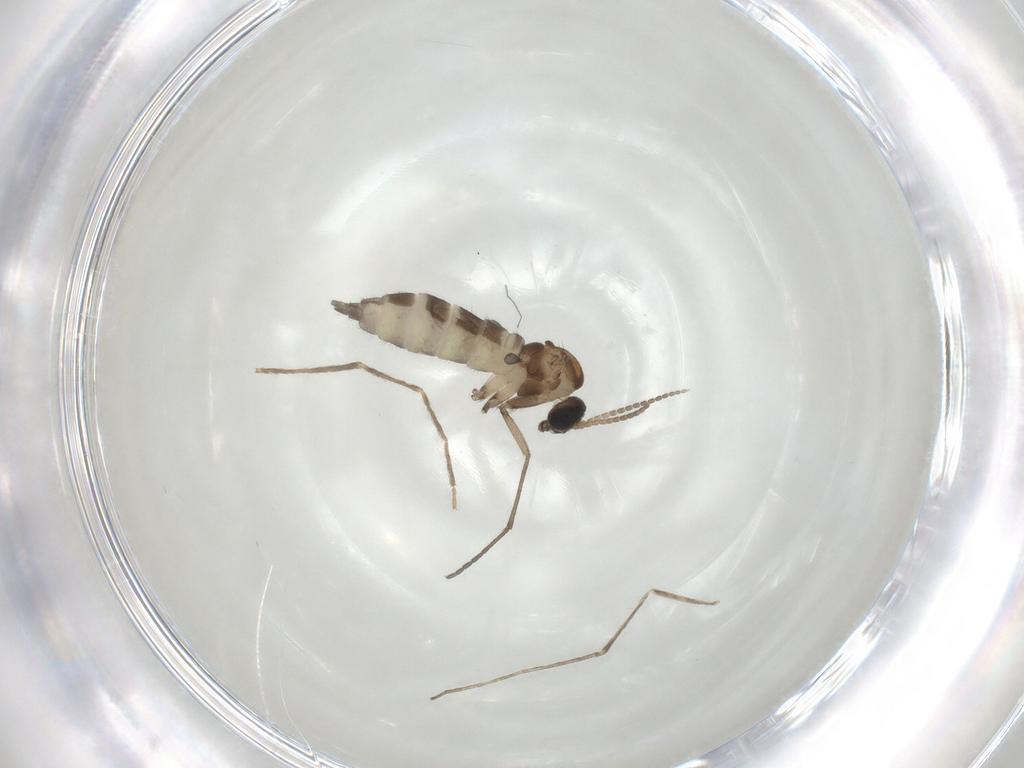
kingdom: Animalia
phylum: Arthropoda
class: Insecta
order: Diptera
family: Sciaridae
